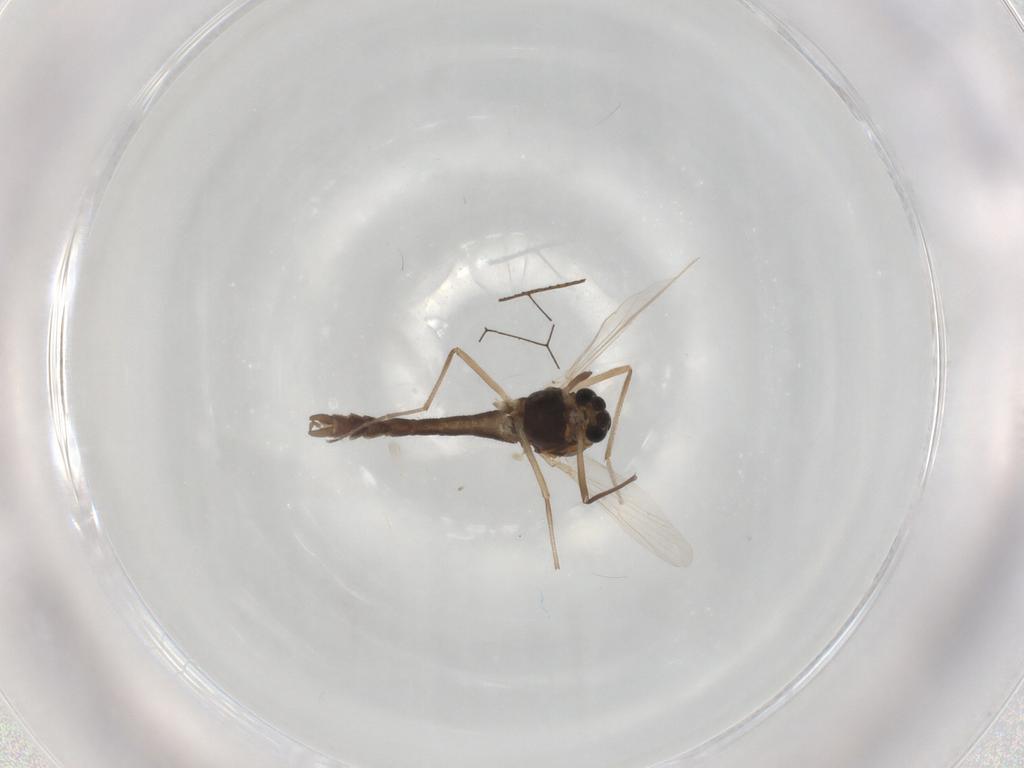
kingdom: Animalia
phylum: Arthropoda
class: Insecta
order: Diptera
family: Chironomidae
